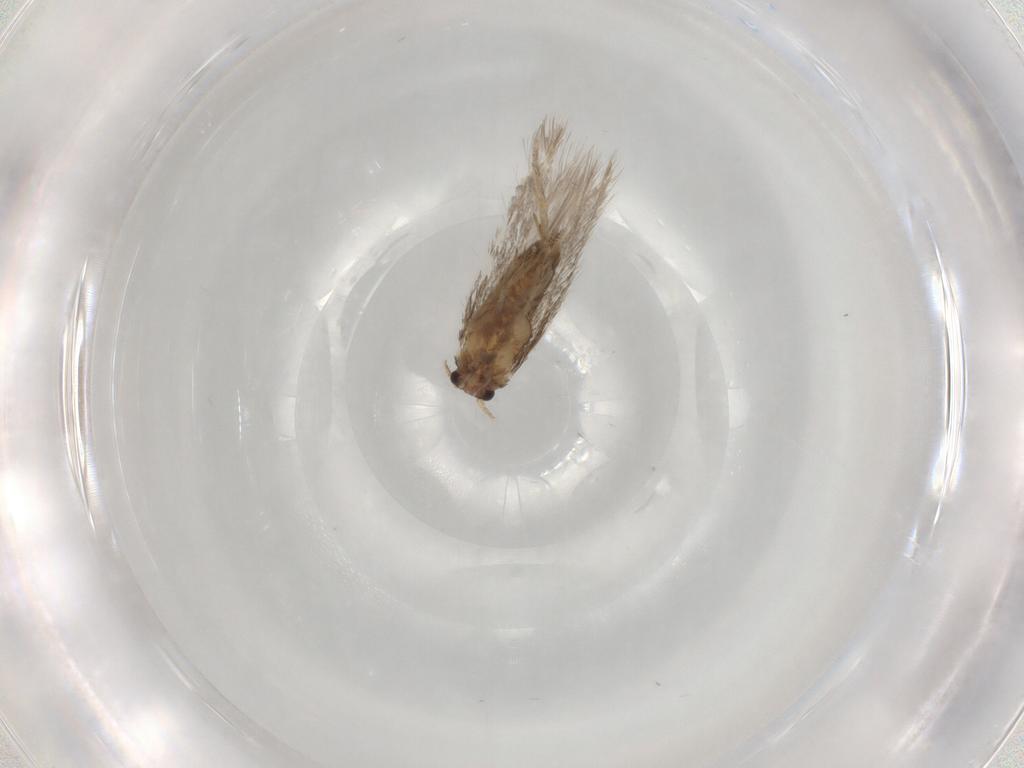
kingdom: Animalia
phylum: Arthropoda
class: Insecta
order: Lepidoptera
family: Nepticulidae
